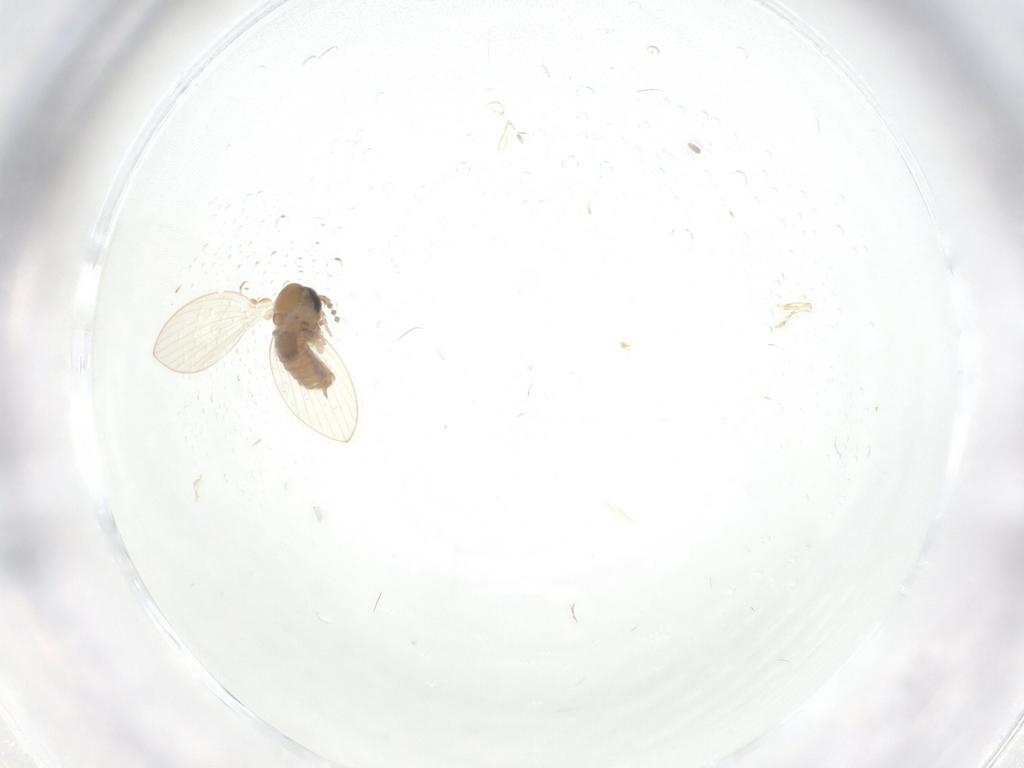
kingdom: Animalia
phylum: Arthropoda
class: Insecta
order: Diptera
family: Psychodidae
